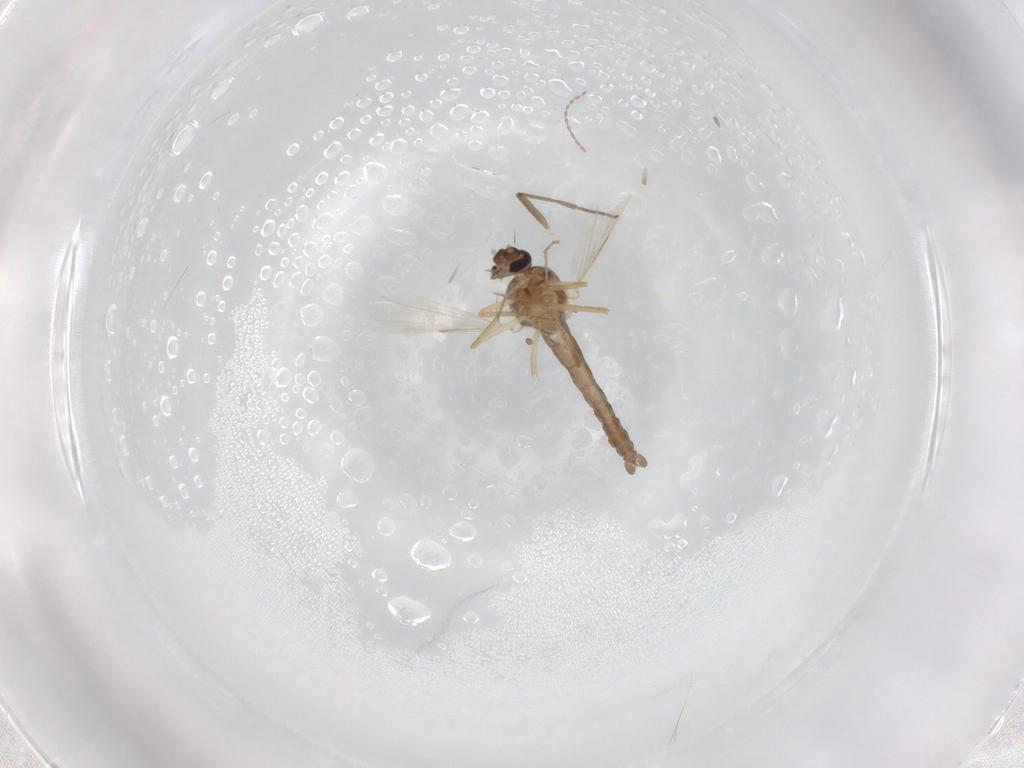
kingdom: Animalia
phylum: Arthropoda
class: Insecta
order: Diptera
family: Ceratopogonidae
